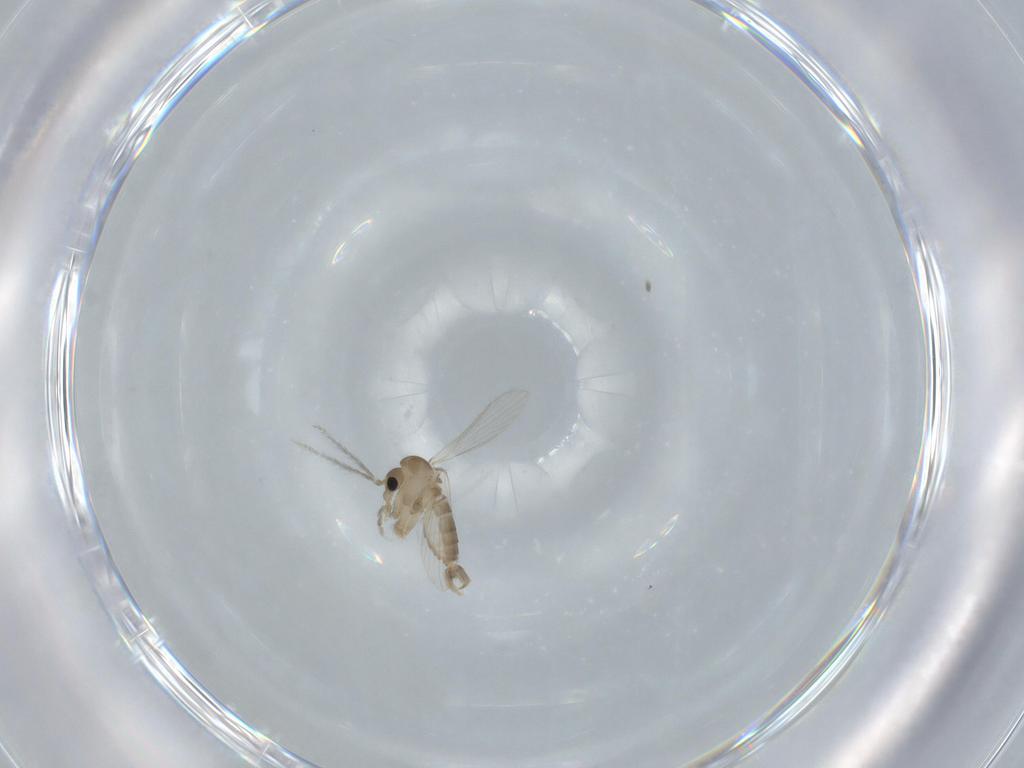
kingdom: Animalia
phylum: Arthropoda
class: Insecta
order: Diptera
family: Psychodidae
